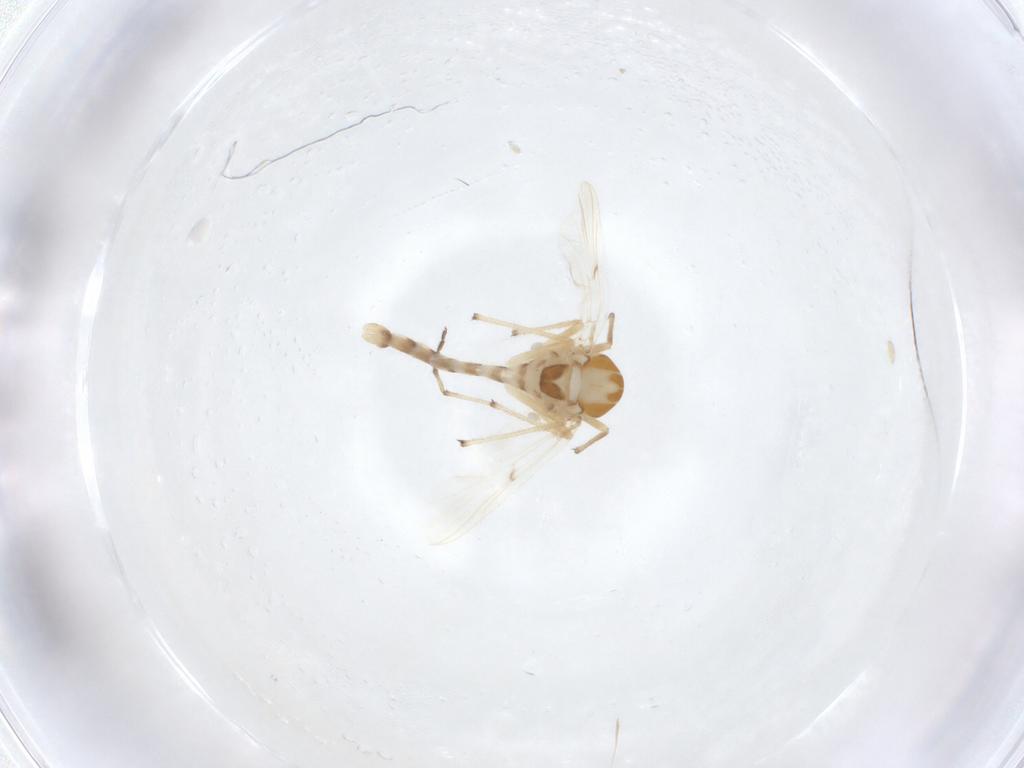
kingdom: Animalia
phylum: Arthropoda
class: Insecta
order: Diptera
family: Chironomidae
